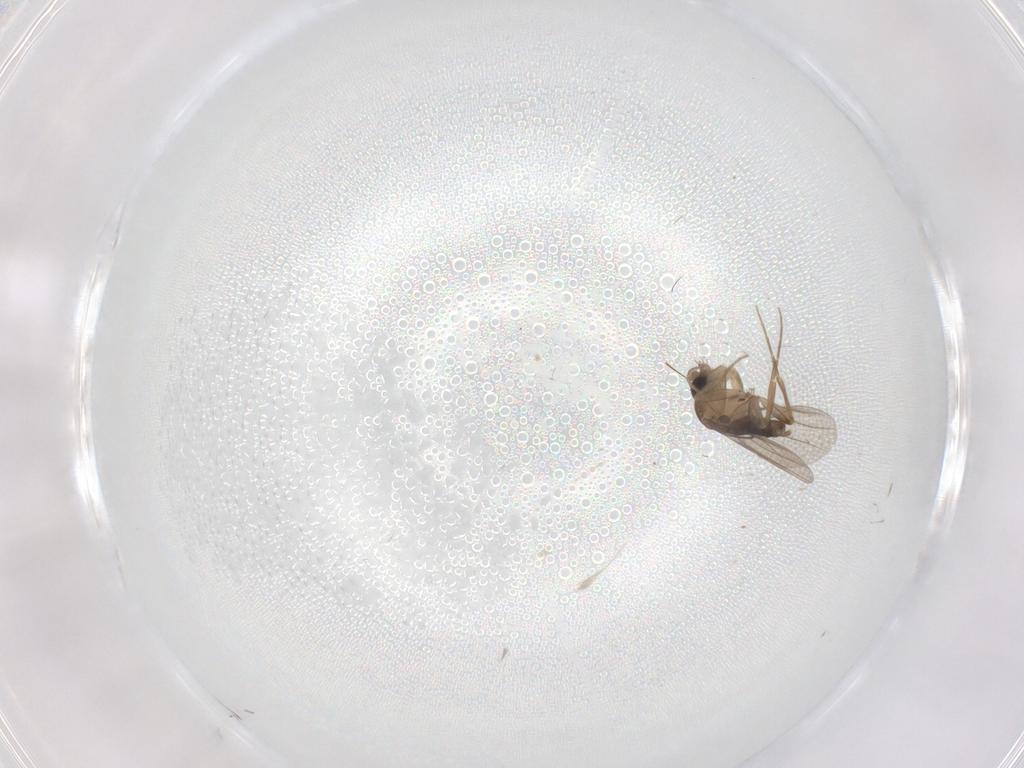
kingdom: Animalia
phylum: Arthropoda
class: Insecta
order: Diptera
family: Phoridae
